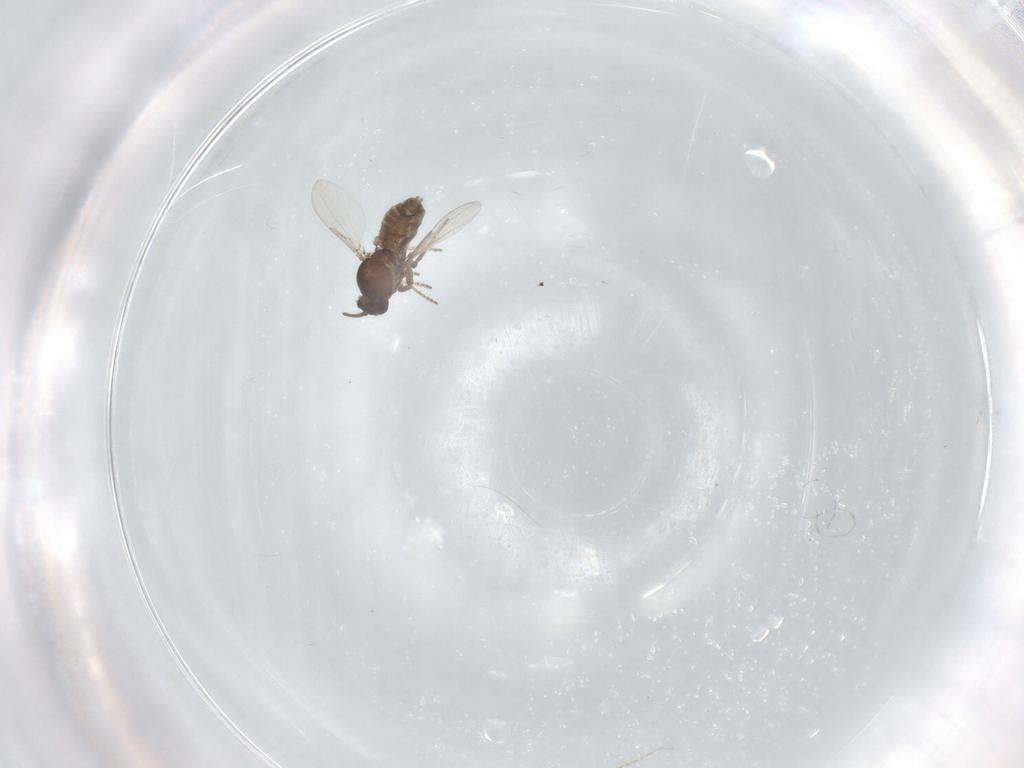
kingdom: Animalia
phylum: Arthropoda
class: Insecta
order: Diptera
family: Ceratopogonidae
